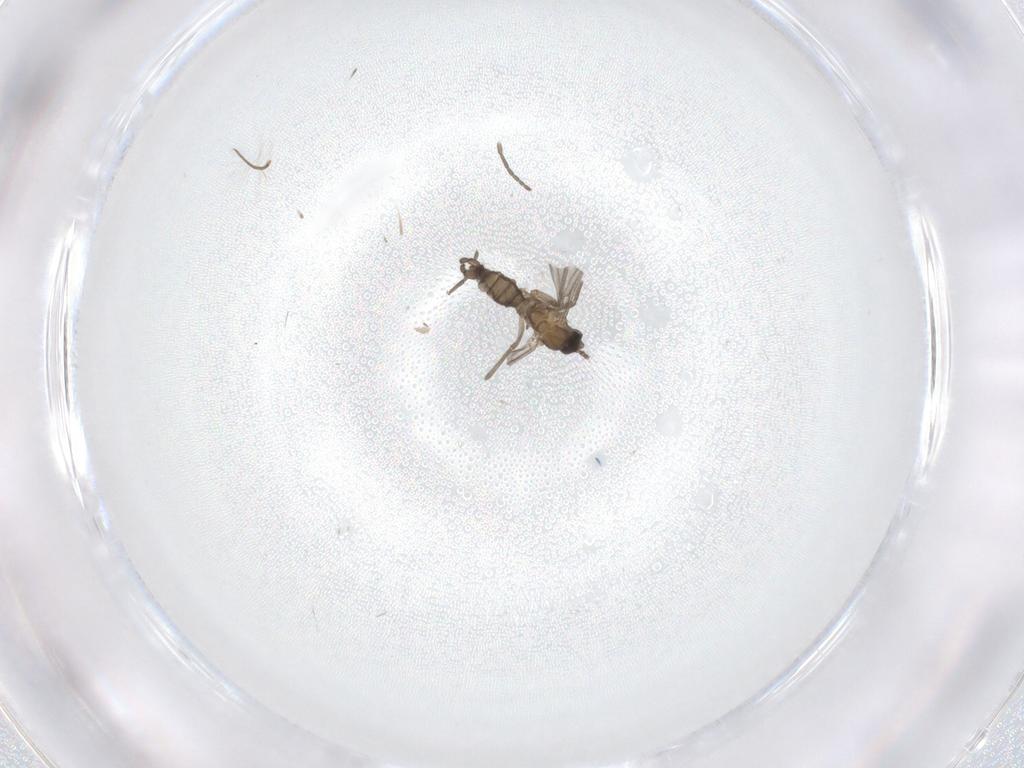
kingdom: Animalia
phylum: Arthropoda
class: Insecta
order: Diptera
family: Sciaridae
